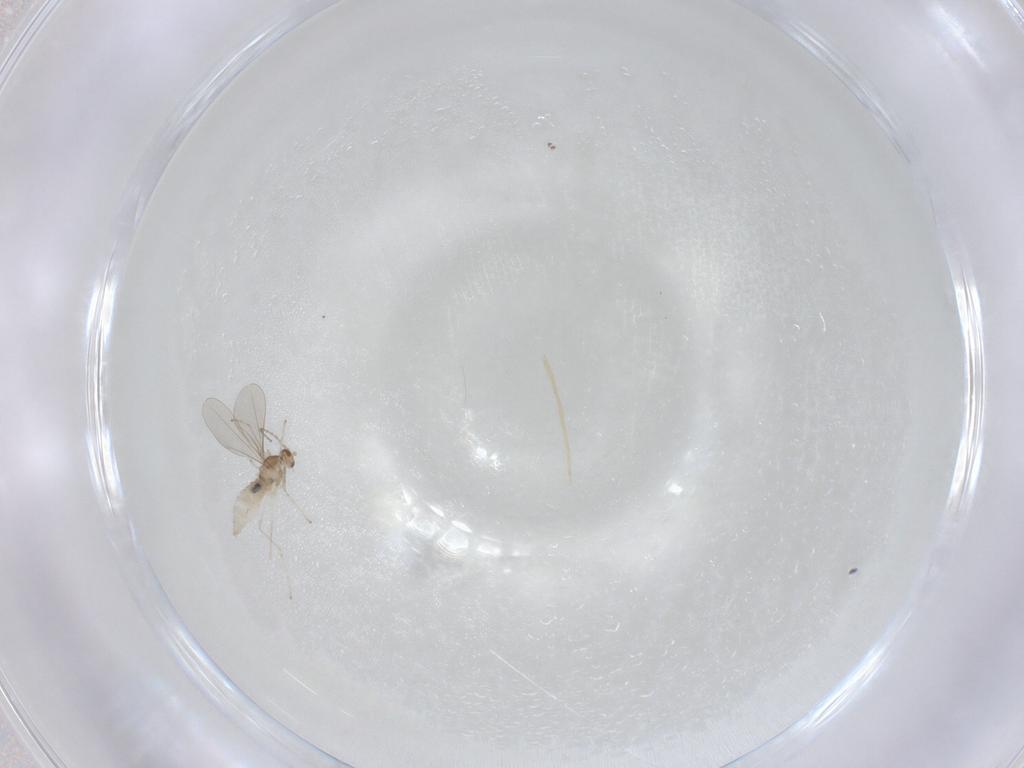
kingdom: Animalia
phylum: Arthropoda
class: Insecta
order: Diptera
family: Cecidomyiidae
